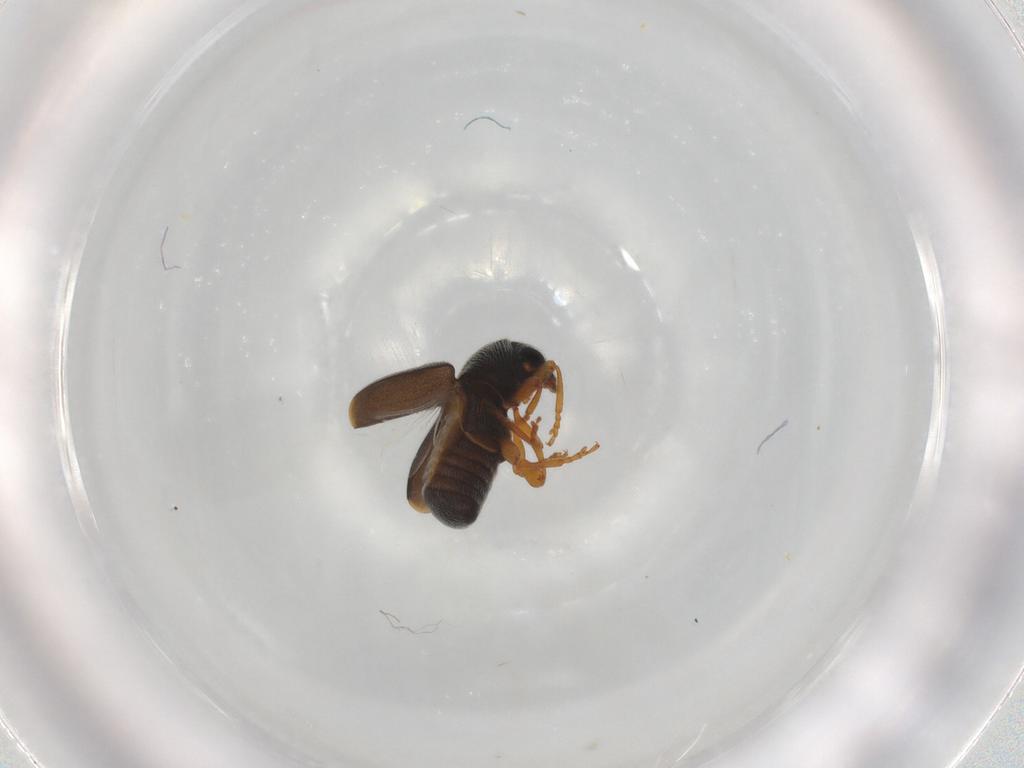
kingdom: Animalia
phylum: Arthropoda
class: Insecta
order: Coleoptera
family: Anthribidae
